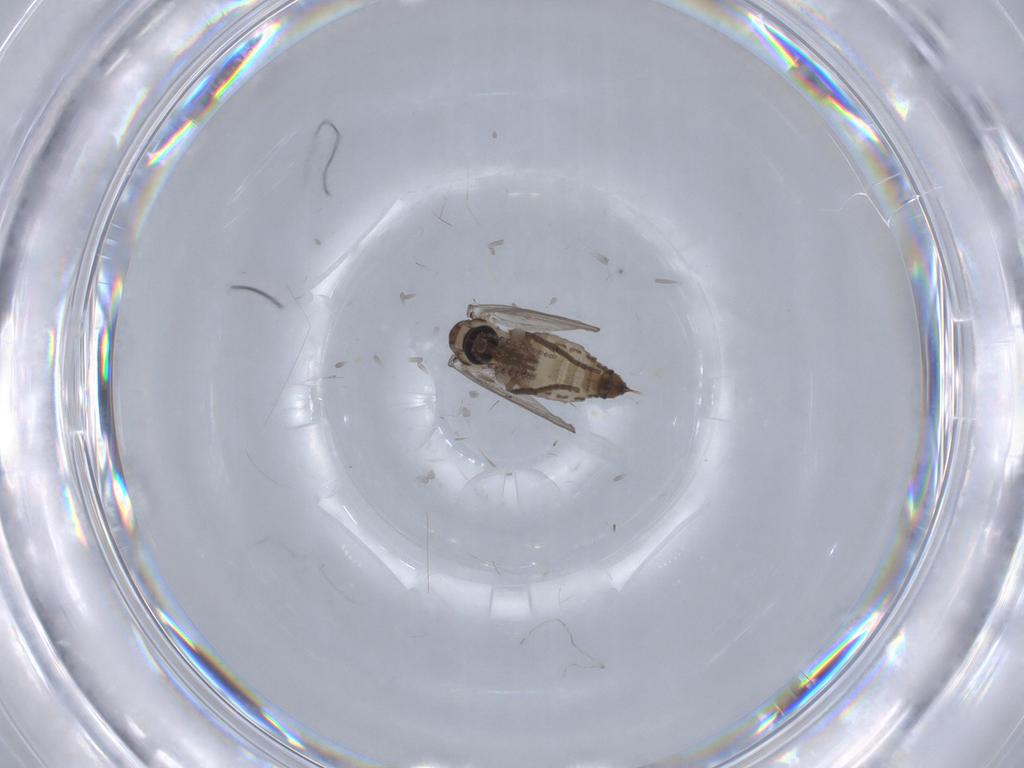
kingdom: Animalia
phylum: Arthropoda
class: Insecta
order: Diptera
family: Psychodidae
